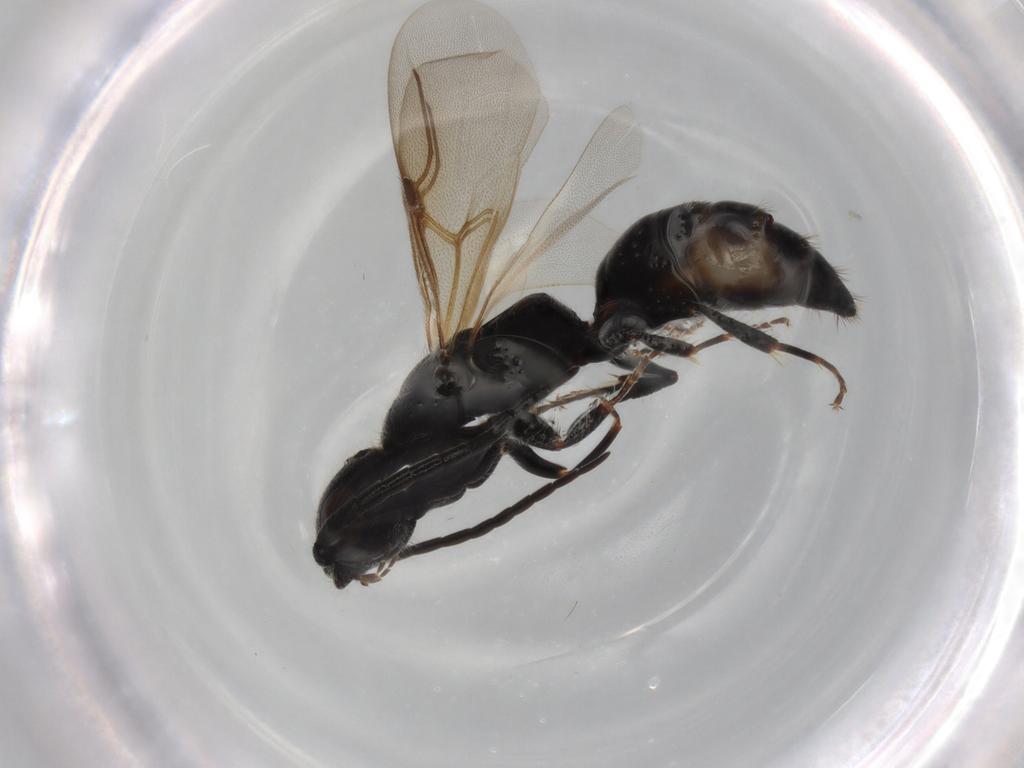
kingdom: Animalia
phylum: Arthropoda
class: Insecta
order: Hymenoptera
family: Bethylidae
